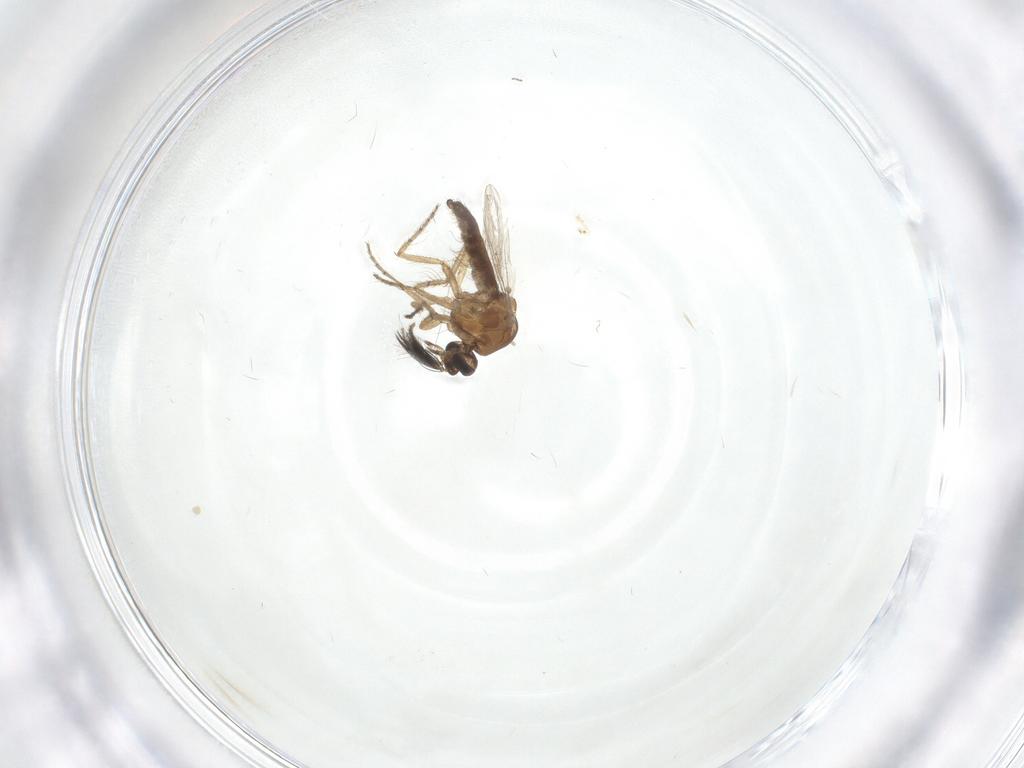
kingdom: Animalia
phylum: Arthropoda
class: Insecta
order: Diptera
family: Ceratopogonidae
